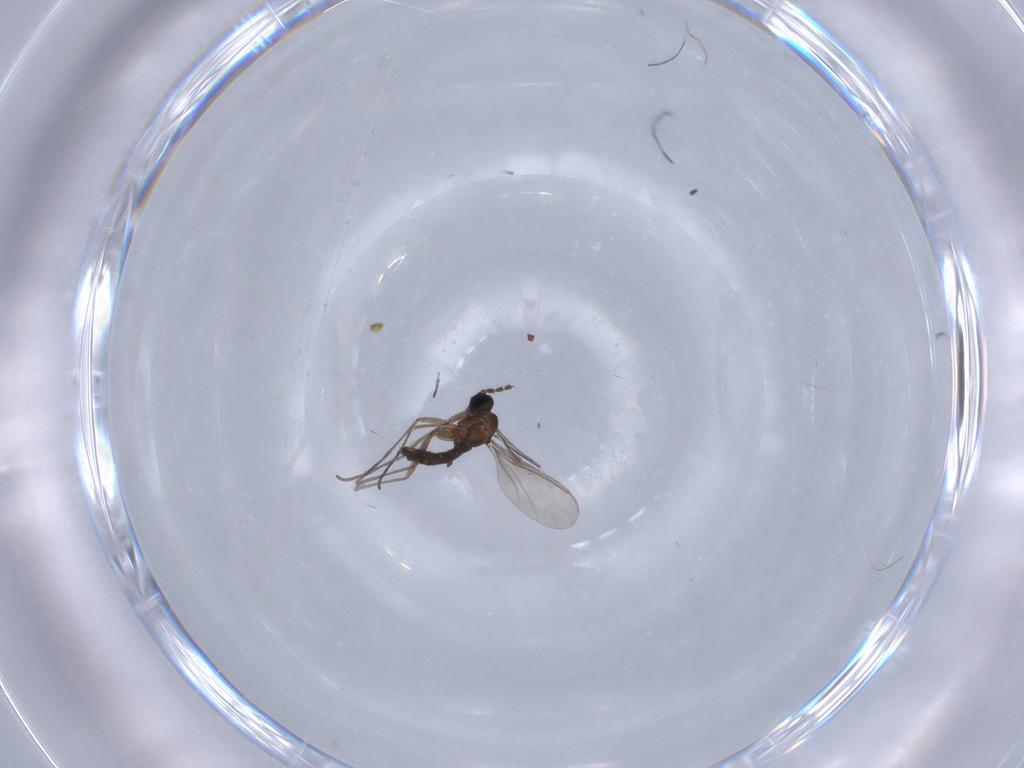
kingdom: Animalia
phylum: Arthropoda
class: Insecta
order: Diptera
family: Sciaridae
